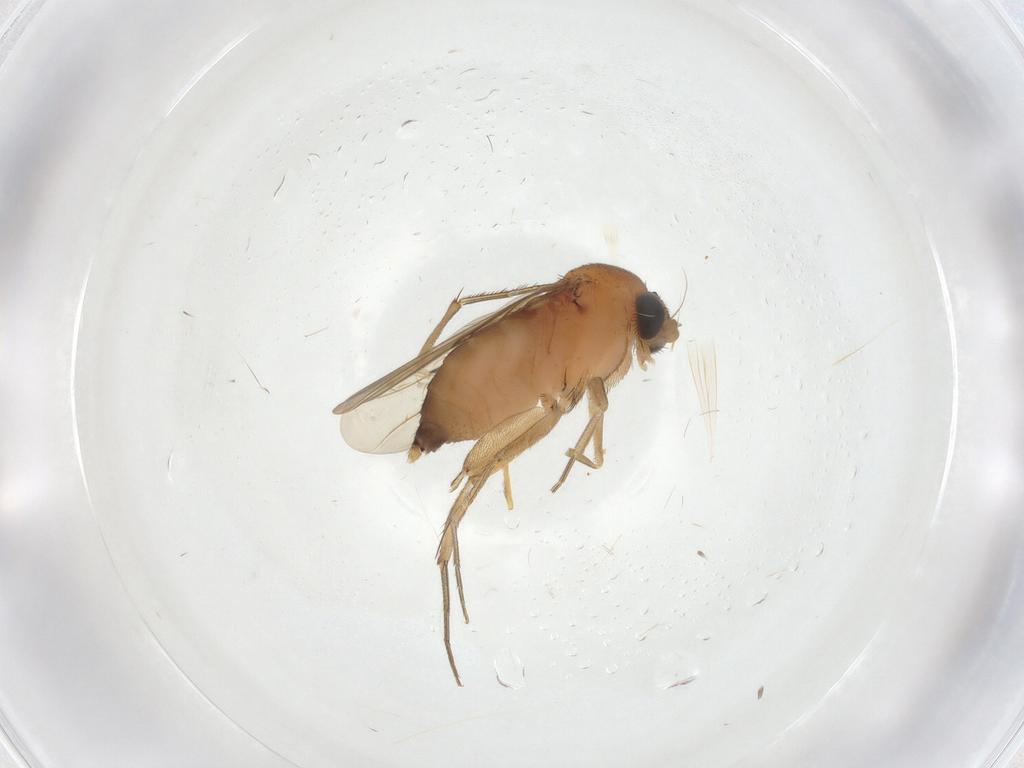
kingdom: Animalia
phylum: Arthropoda
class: Insecta
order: Diptera
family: Phoridae
